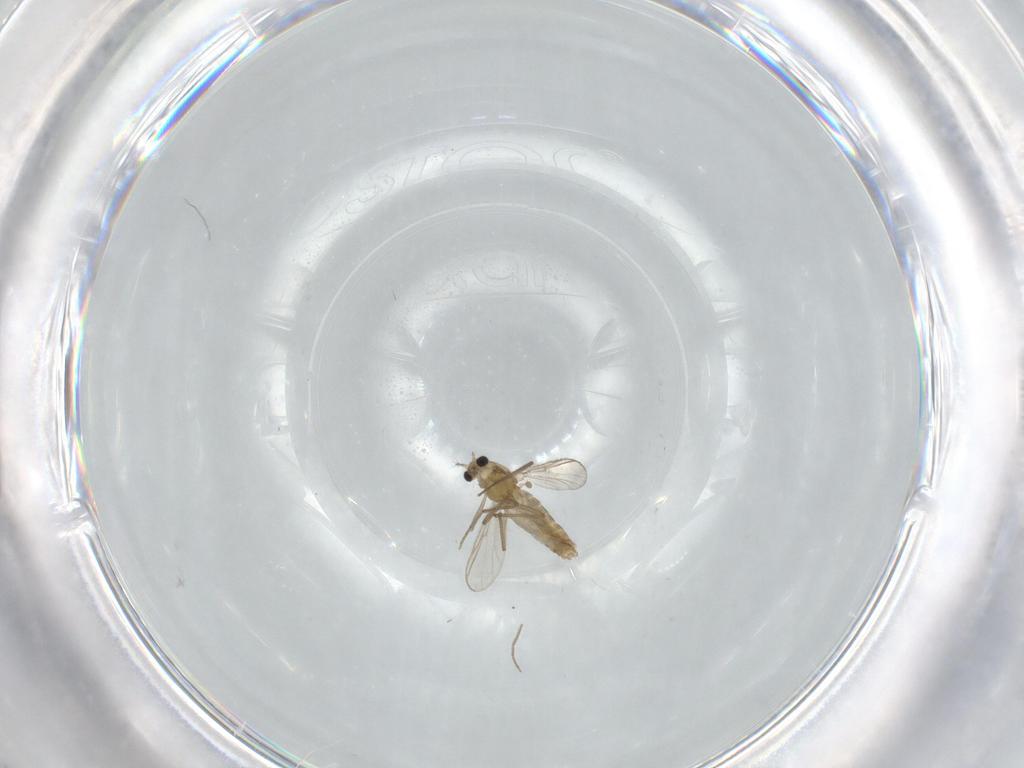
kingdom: Animalia
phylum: Arthropoda
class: Insecta
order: Diptera
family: Chironomidae
